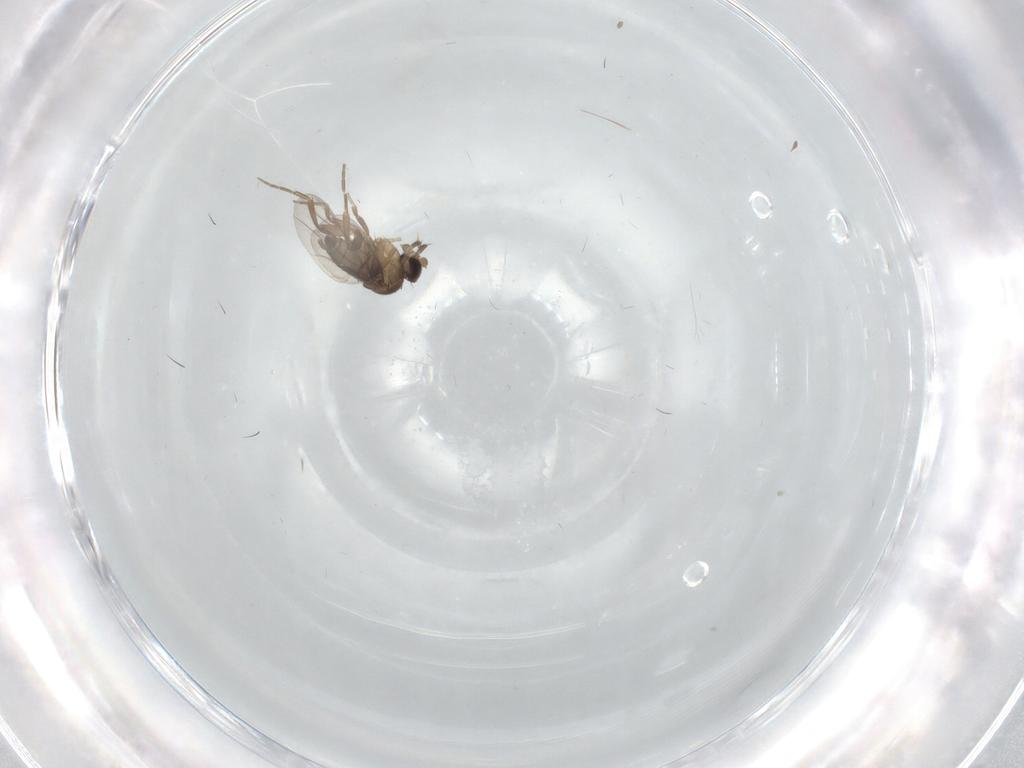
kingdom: Animalia
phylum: Arthropoda
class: Insecta
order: Diptera
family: Phoridae
